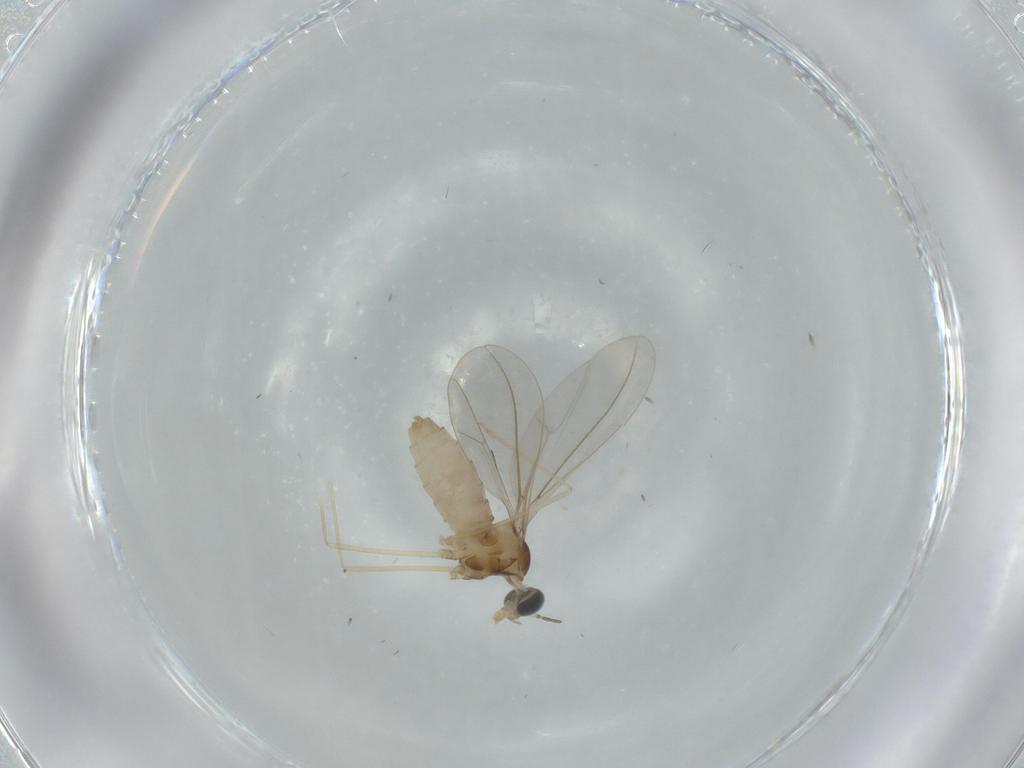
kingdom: Animalia
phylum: Arthropoda
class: Insecta
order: Diptera
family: Cecidomyiidae
